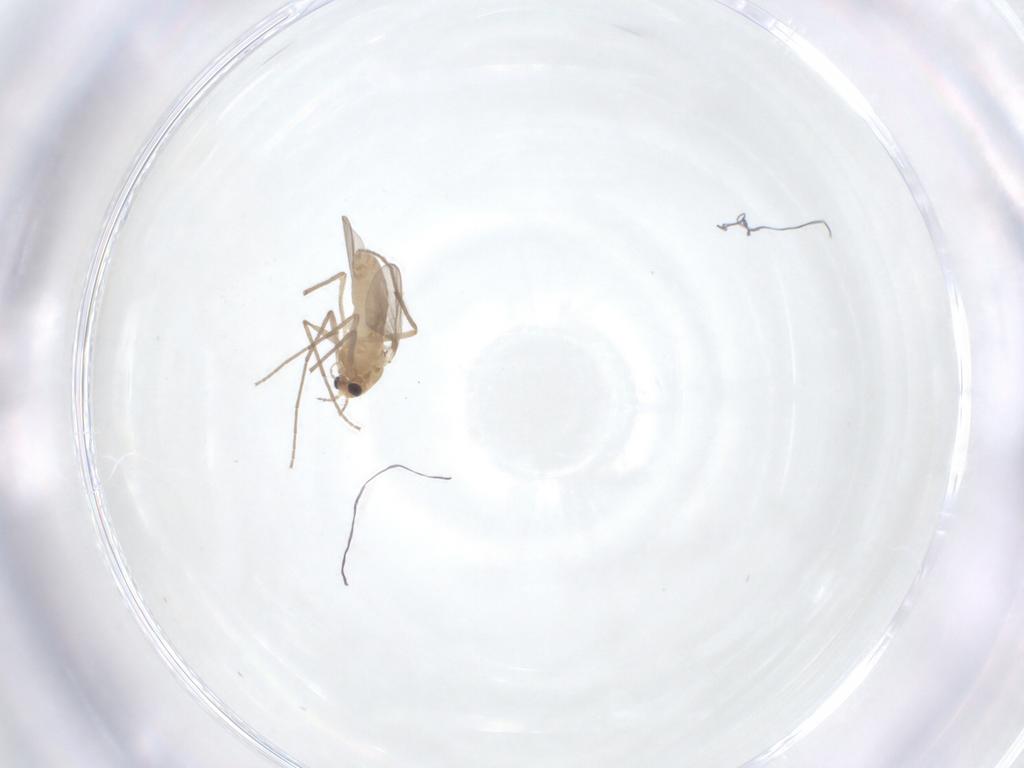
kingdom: Animalia
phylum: Arthropoda
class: Insecta
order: Diptera
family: Chironomidae
